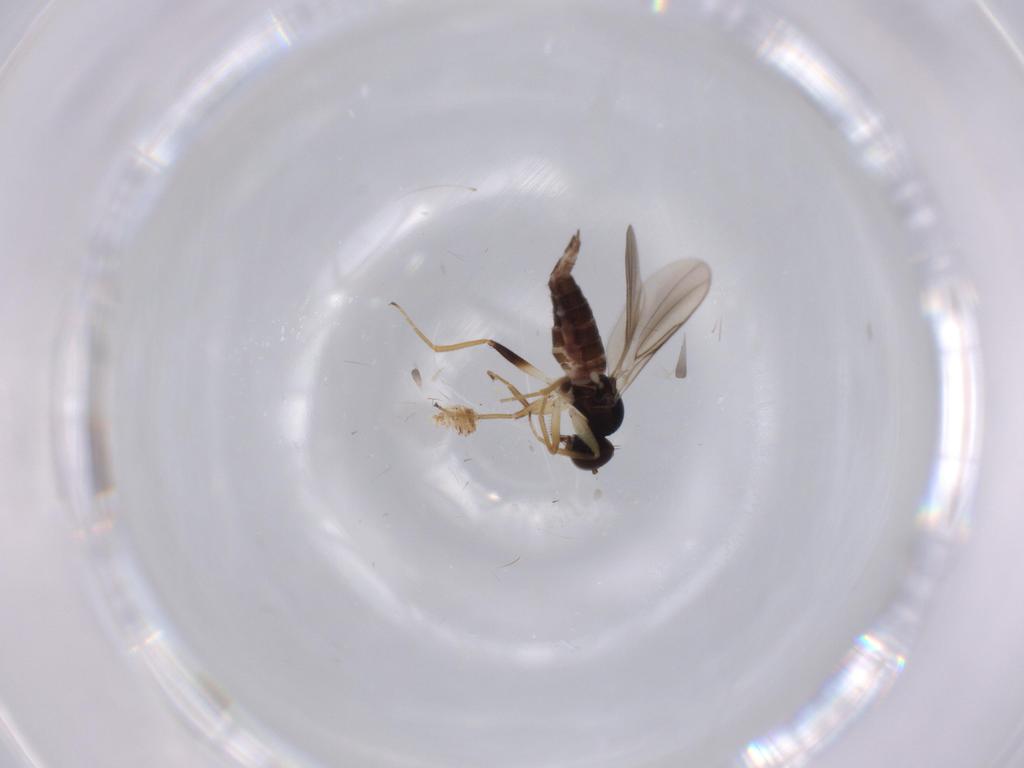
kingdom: Animalia
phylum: Arthropoda
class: Insecta
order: Diptera
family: Hybotidae
